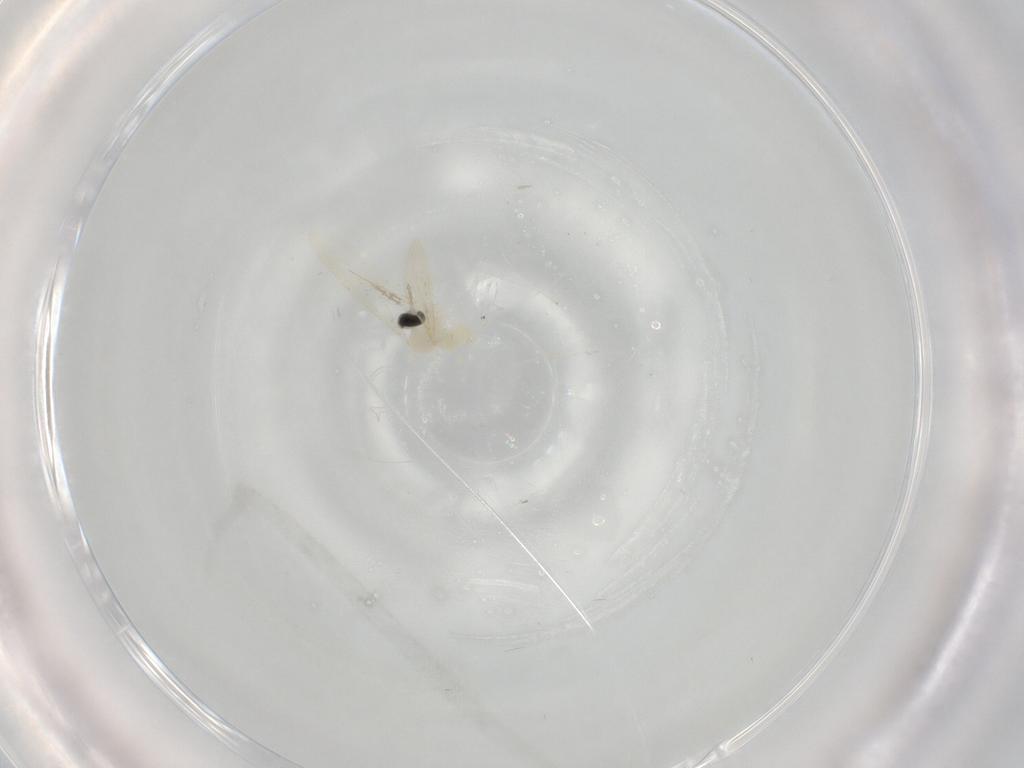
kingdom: Animalia
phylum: Arthropoda
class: Insecta
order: Diptera
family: Cecidomyiidae
